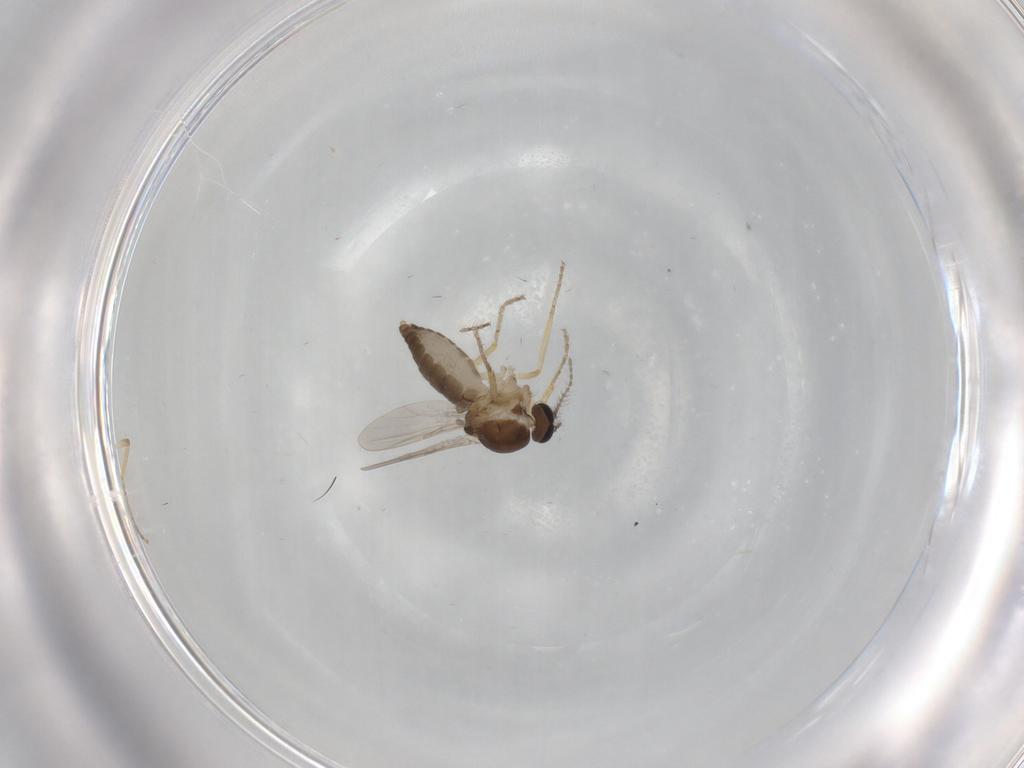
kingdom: Animalia
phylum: Arthropoda
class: Insecta
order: Diptera
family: Ceratopogonidae
